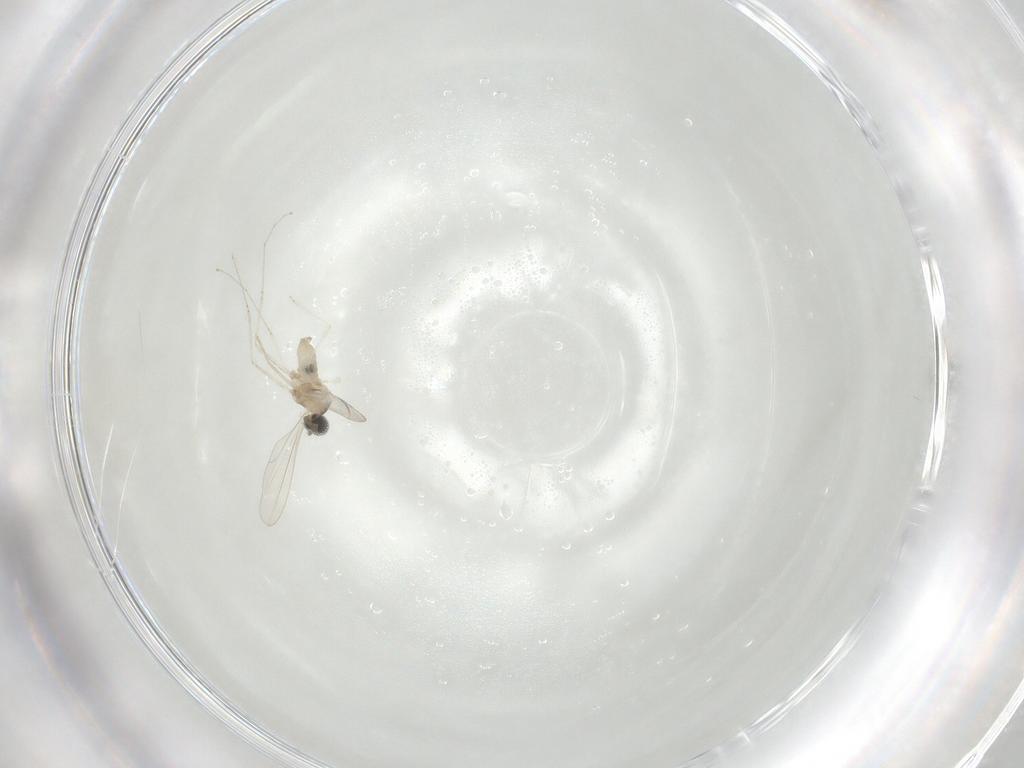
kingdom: Animalia
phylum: Arthropoda
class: Insecta
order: Diptera
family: Cecidomyiidae
